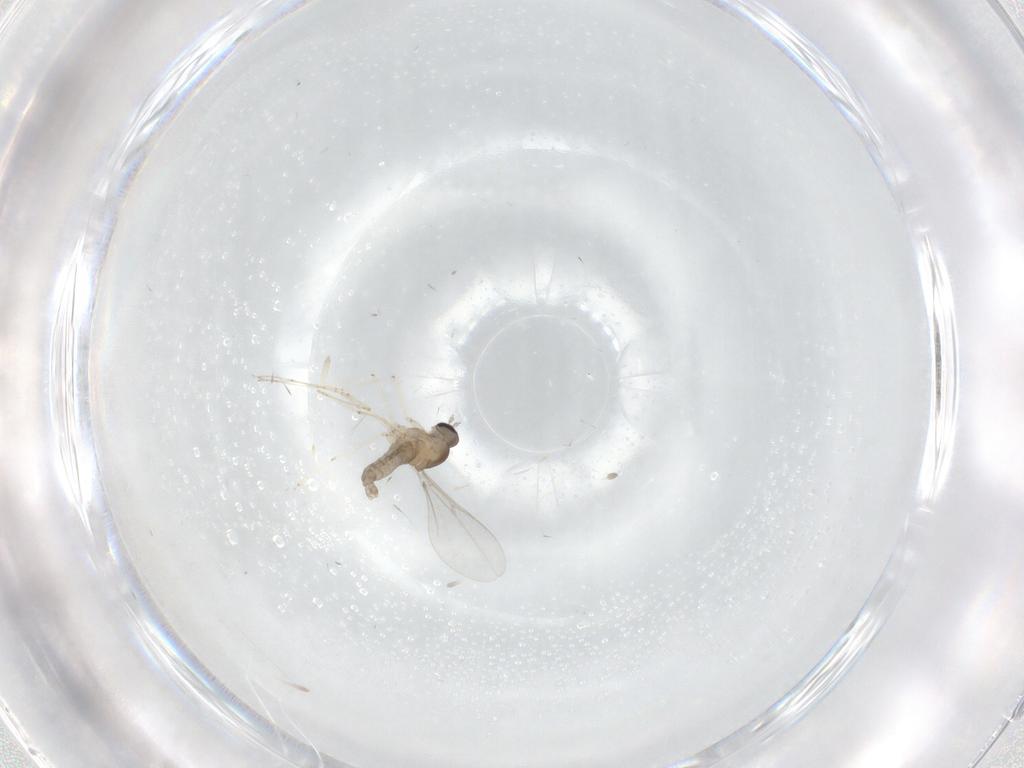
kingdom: Animalia
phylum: Arthropoda
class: Insecta
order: Diptera
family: Cecidomyiidae
